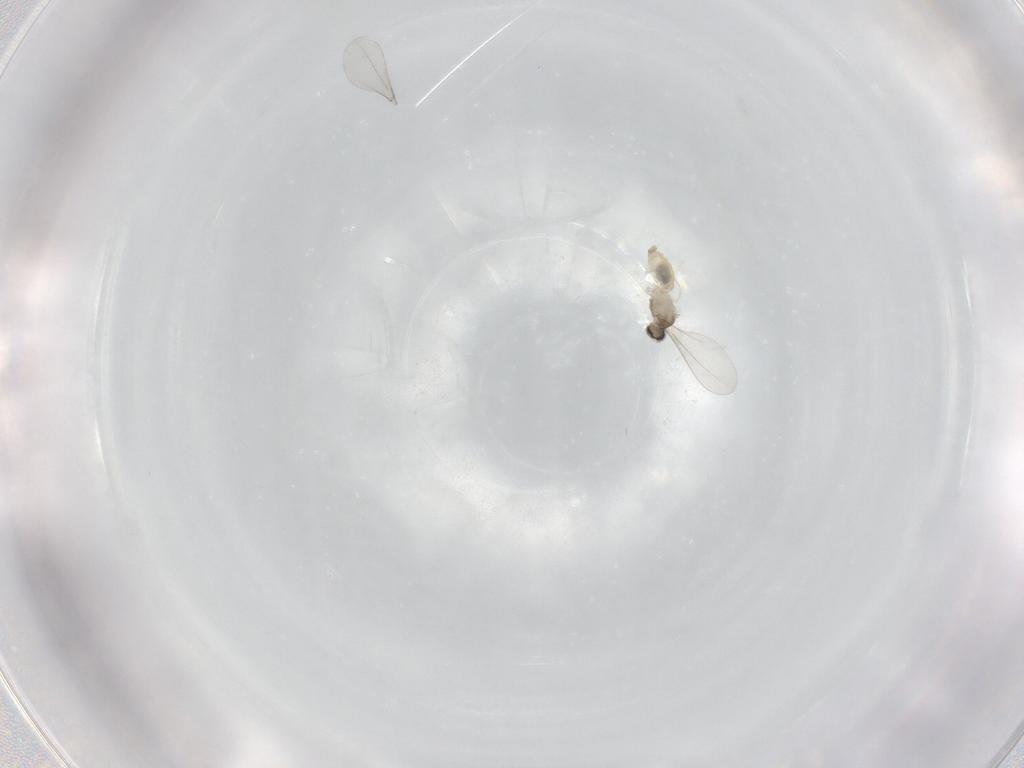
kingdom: Animalia
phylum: Arthropoda
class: Insecta
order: Diptera
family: Cecidomyiidae
